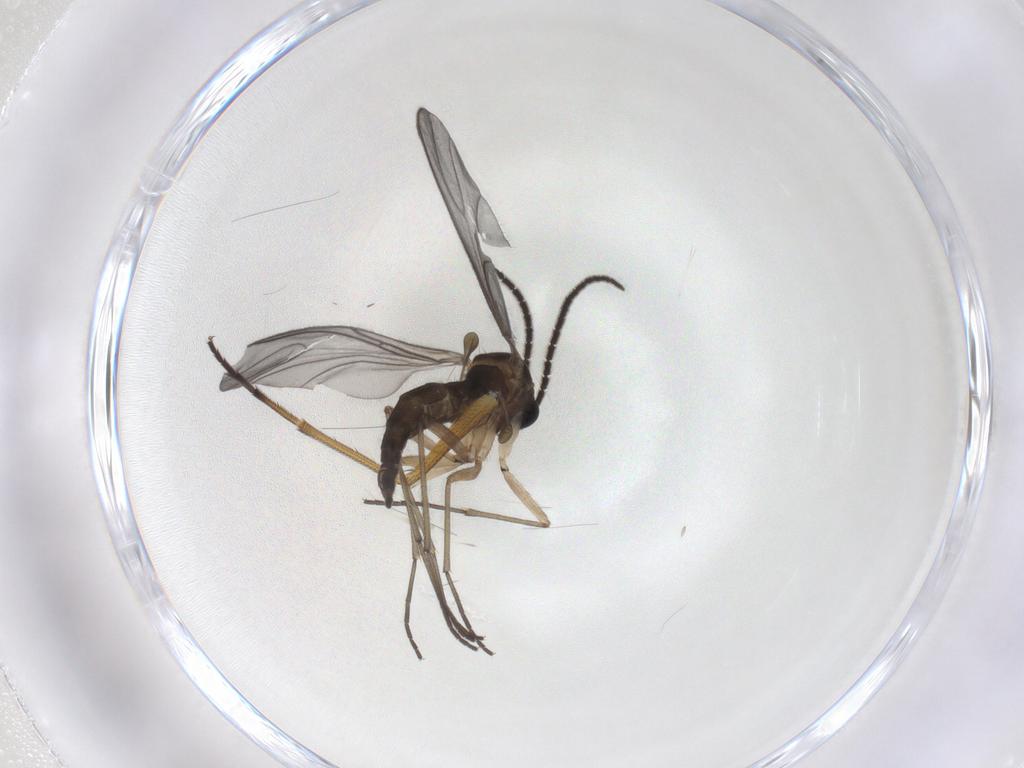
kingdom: Animalia
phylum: Arthropoda
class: Insecta
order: Diptera
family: Dolichopodidae
